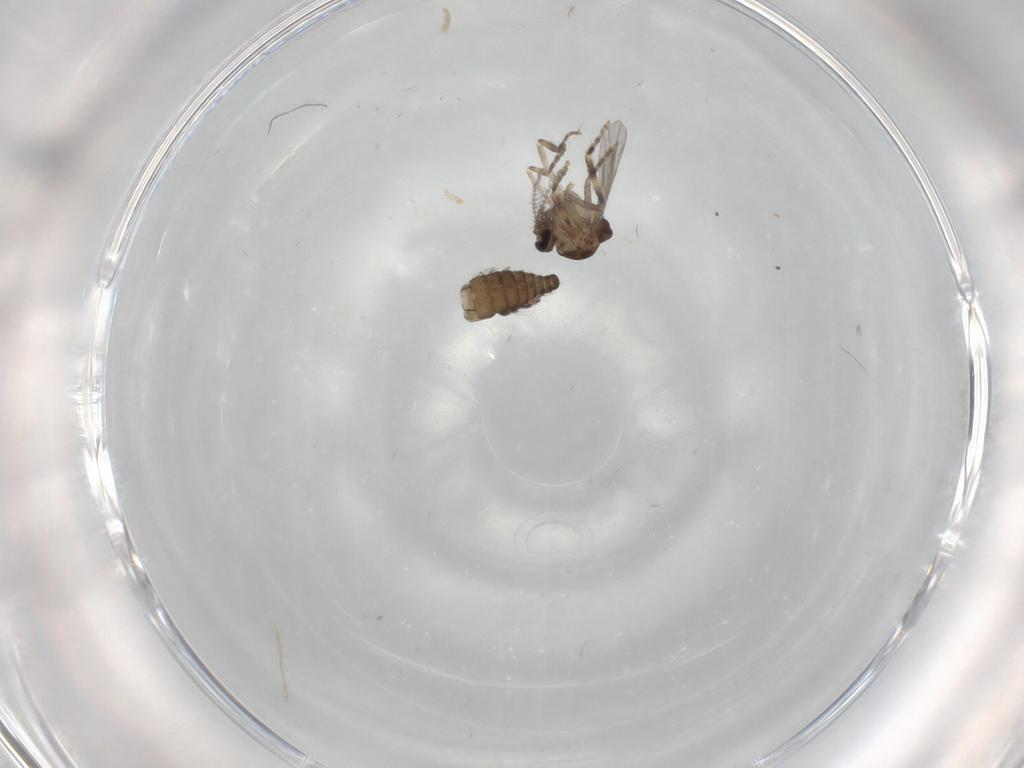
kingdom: Animalia
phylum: Arthropoda
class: Insecta
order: Diptera
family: Ceratopogonidae
